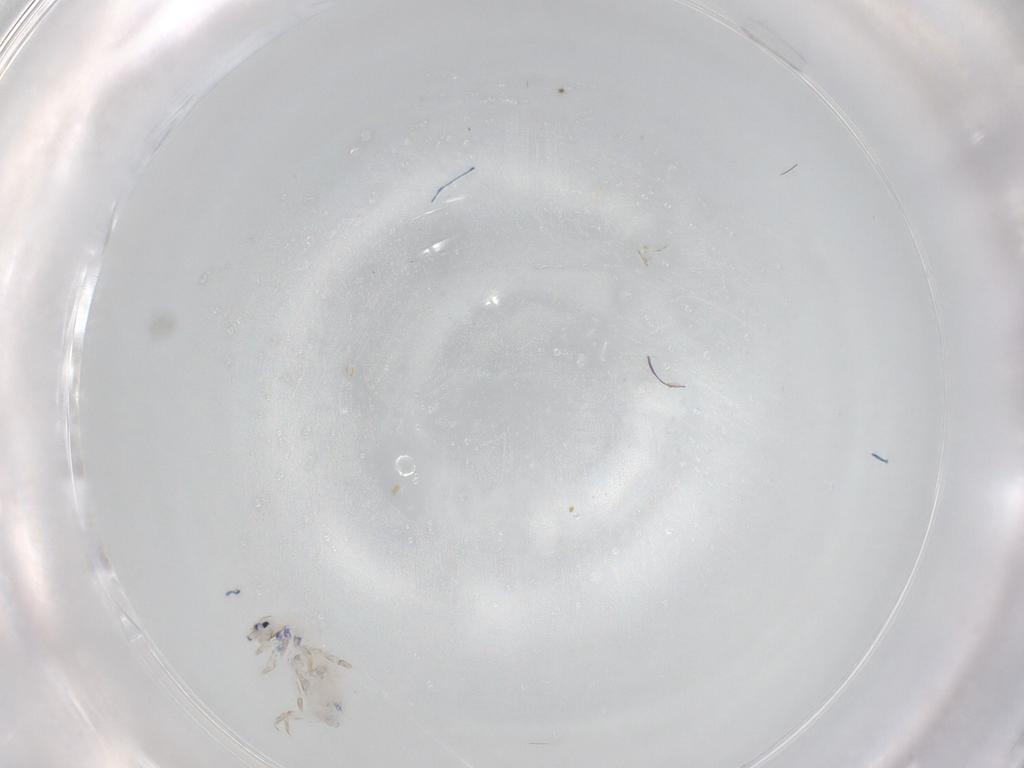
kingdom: Animalia
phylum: Arthropoda
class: Collembola
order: Entomobryomorpha
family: Entomobryidae
